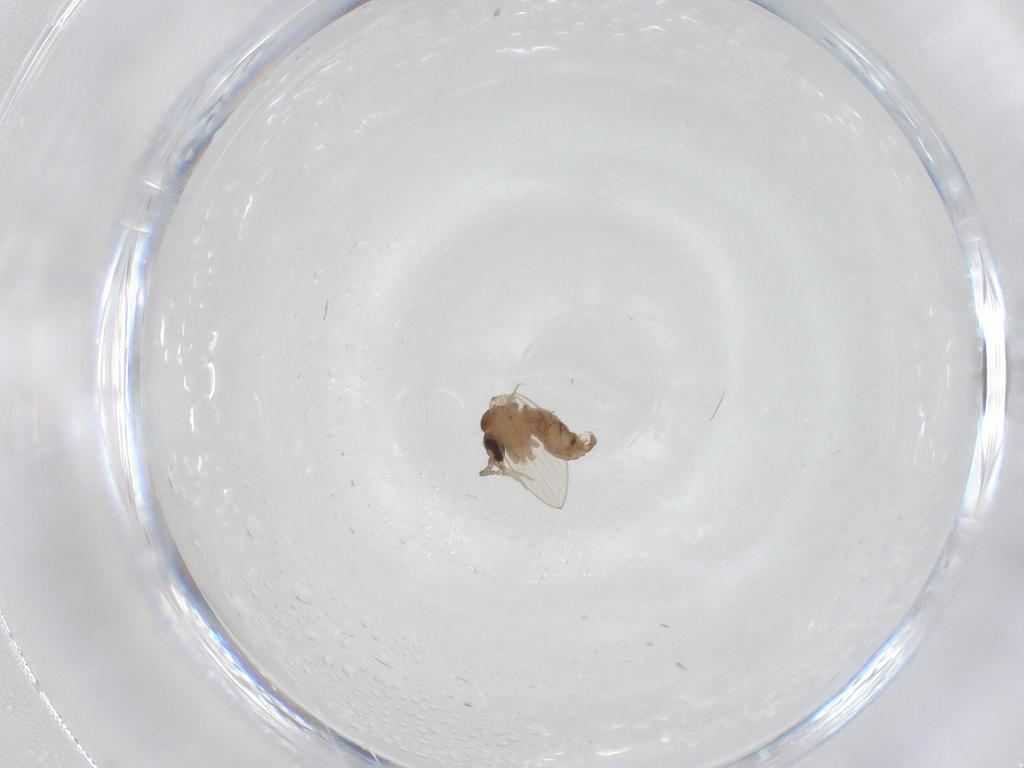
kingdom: Animalia
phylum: Arthropoda
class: Insecta
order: Diptera
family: Psychodidae
